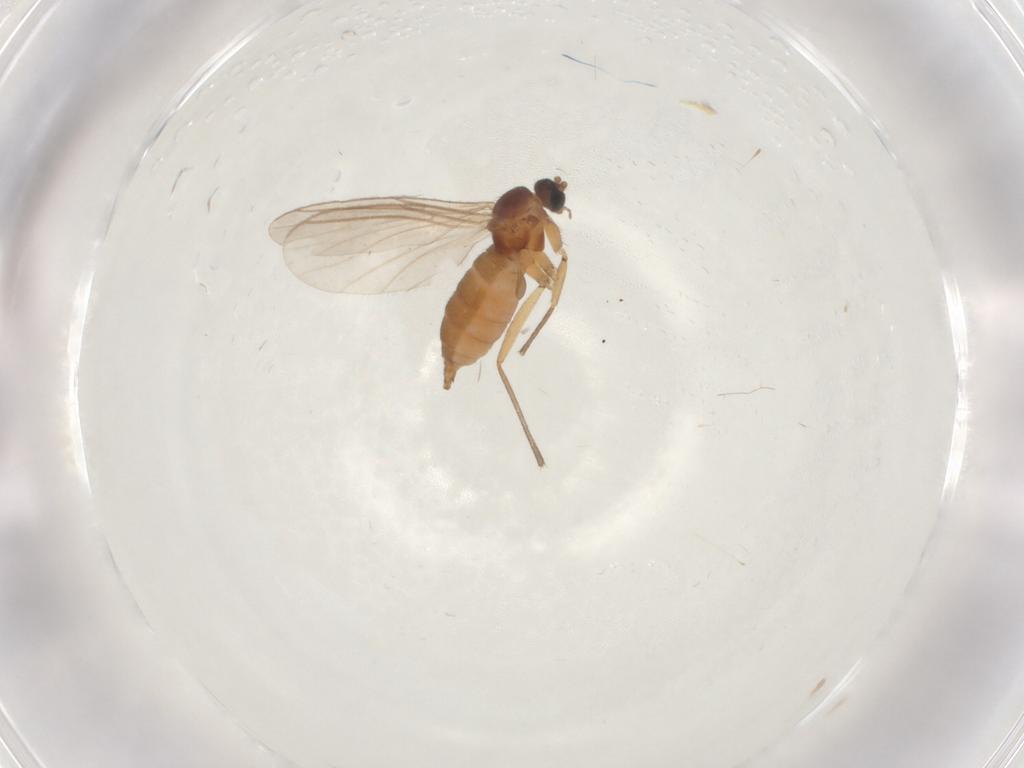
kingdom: Animalia
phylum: Arthropoda
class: Insecta
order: Diptera
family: Sciaridae
